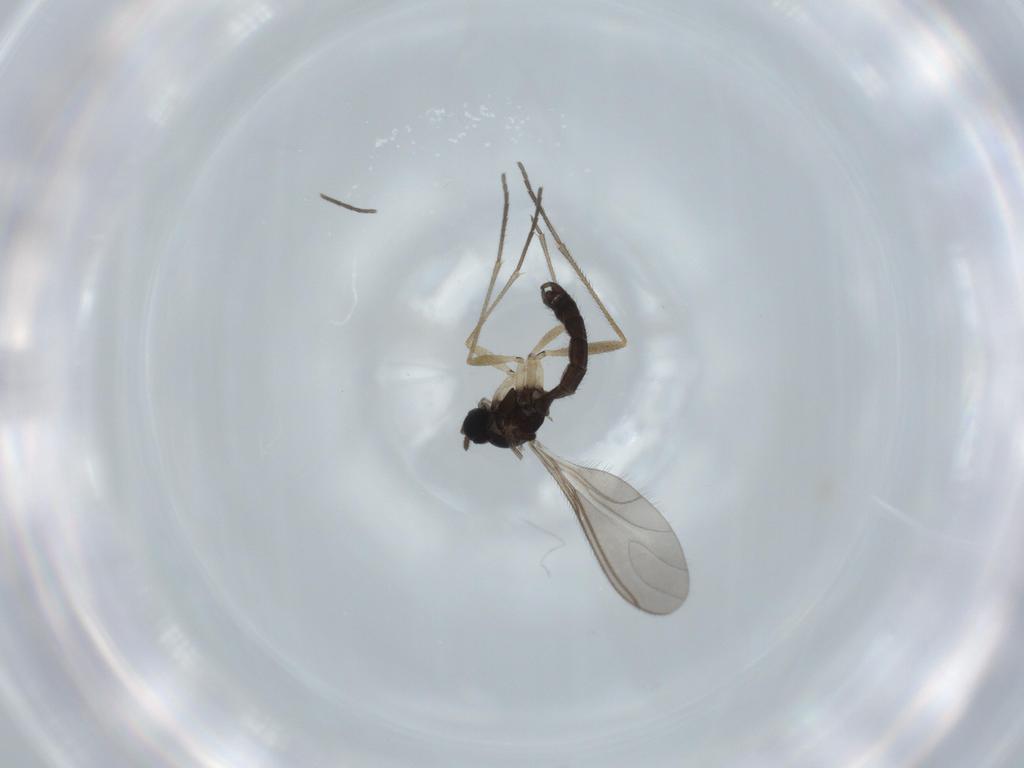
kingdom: Animalia
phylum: Arthropoda
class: Insecta
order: Diptera
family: Sciaridae
